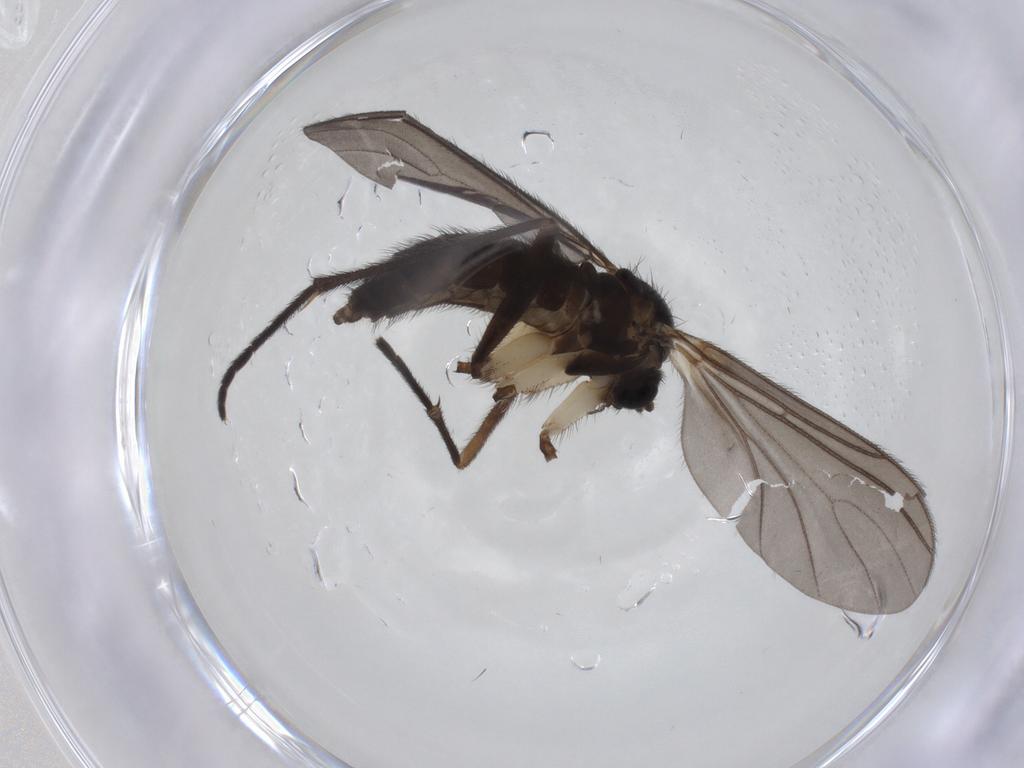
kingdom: Animalia
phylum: Arthropoda
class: Insecta
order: Diptera
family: Sciaridae
